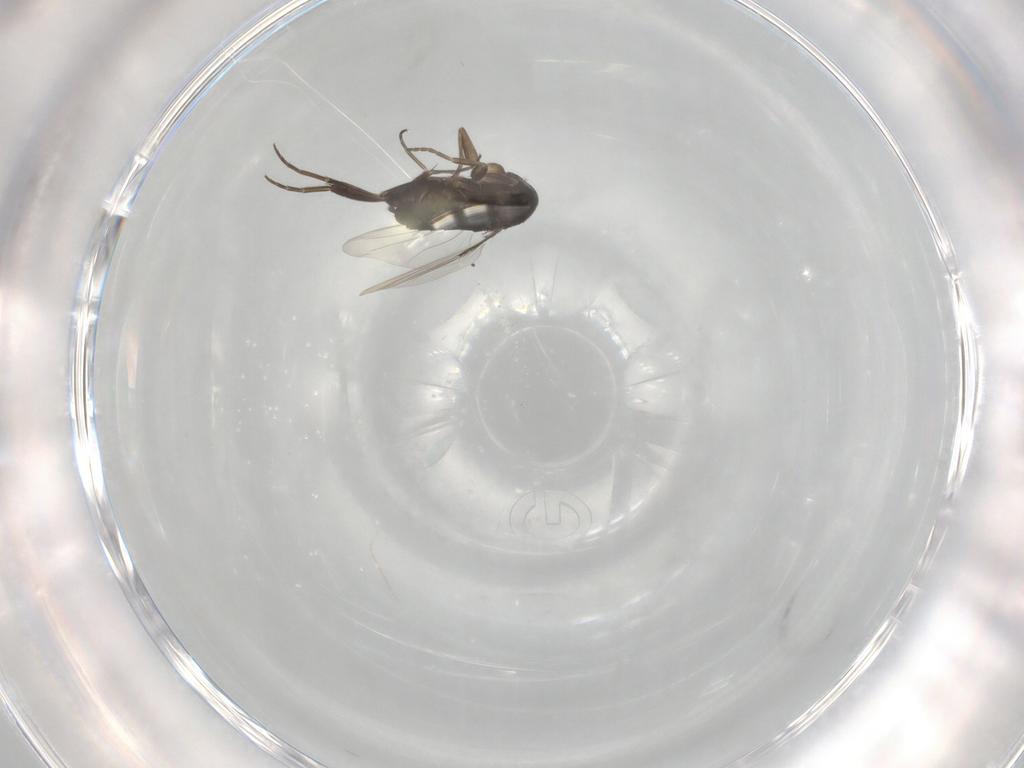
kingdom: Animalia
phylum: Arthropoda
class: Insecta
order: Diptera
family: Phoridae
